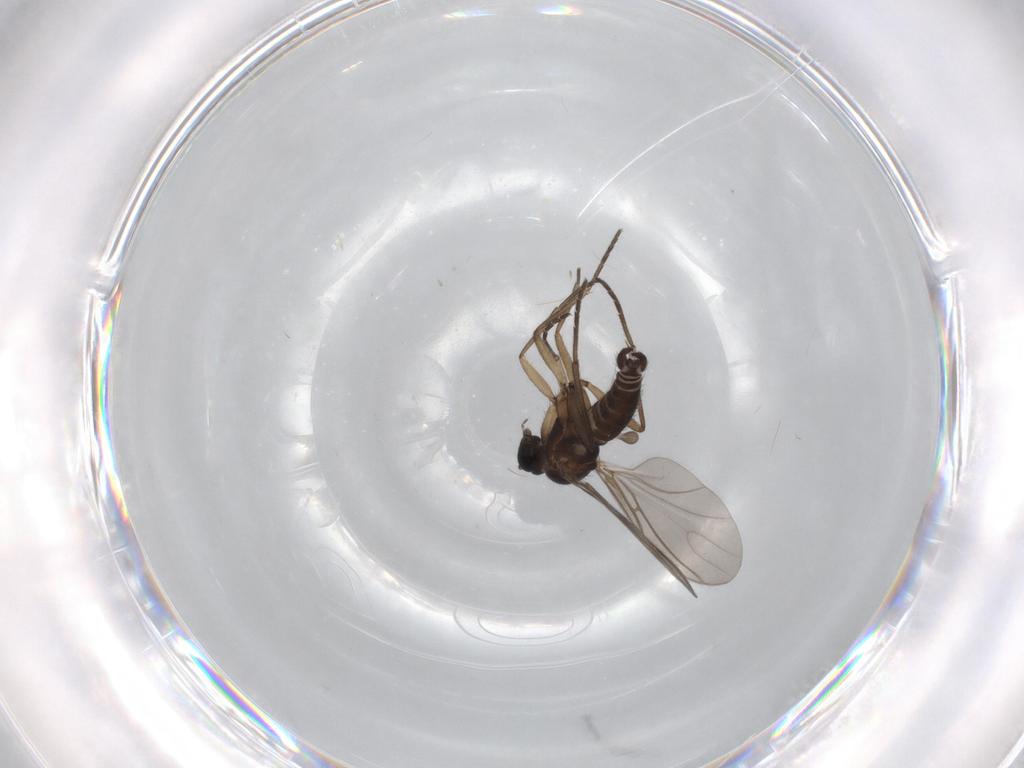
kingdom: Animalia
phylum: Arthropoda
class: Insecta
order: Diptera
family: Sciaridae
